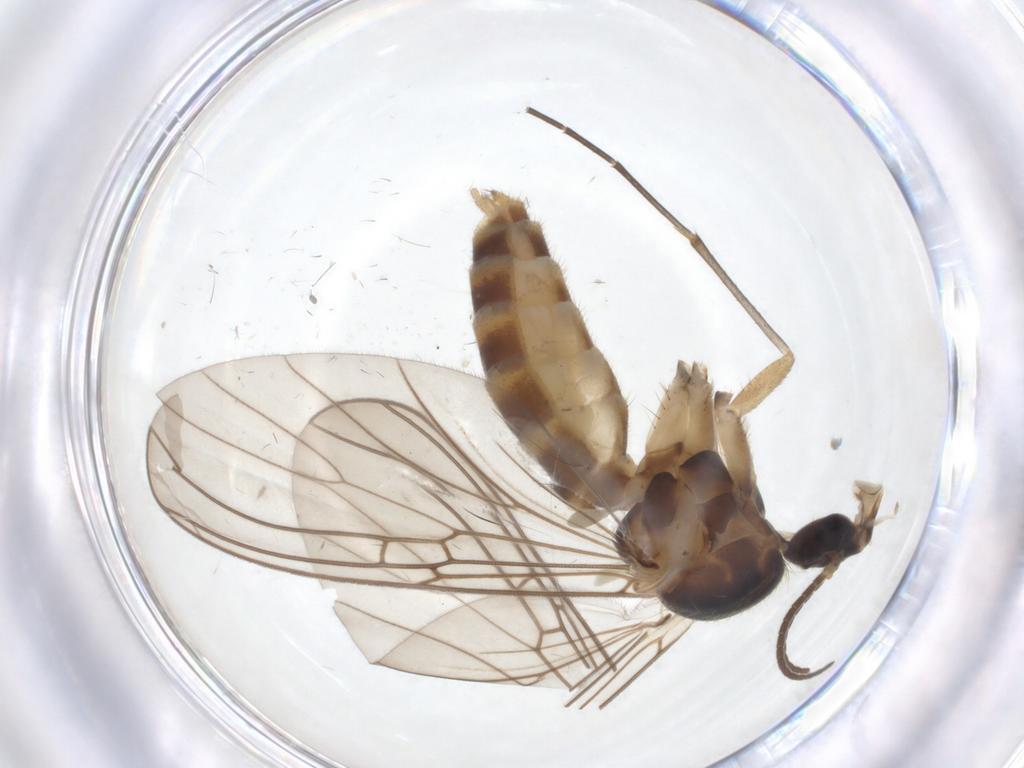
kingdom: Animalia
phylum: Arthropoda
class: Insecta
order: Diptera
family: Mycetophilidae
